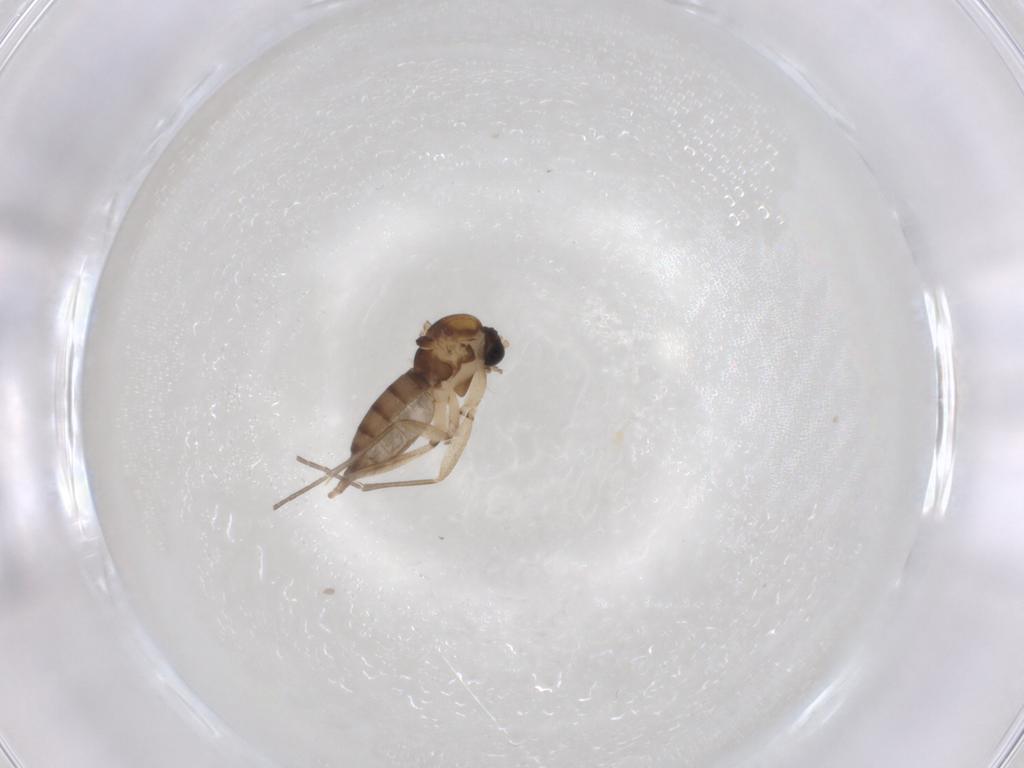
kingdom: Animalia
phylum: Arthropoda
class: Insecta
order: Diptera
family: Sciaridae
